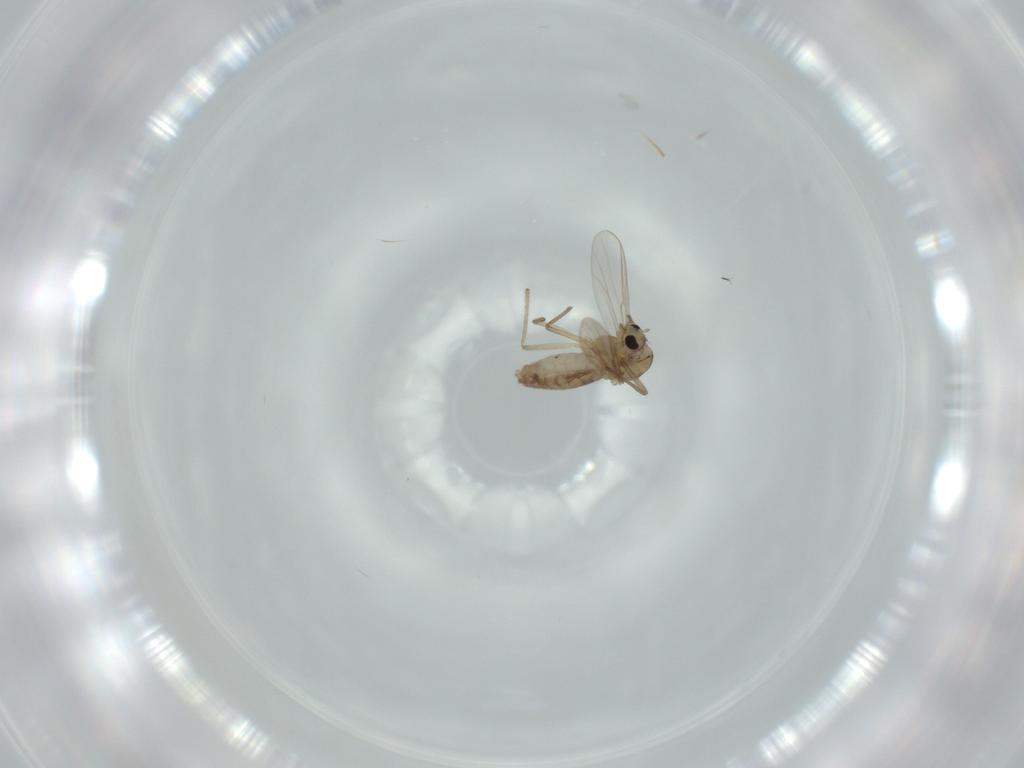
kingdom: Animalia
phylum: Arthropoda
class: Insecta
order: Diptera
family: Chironomidae
